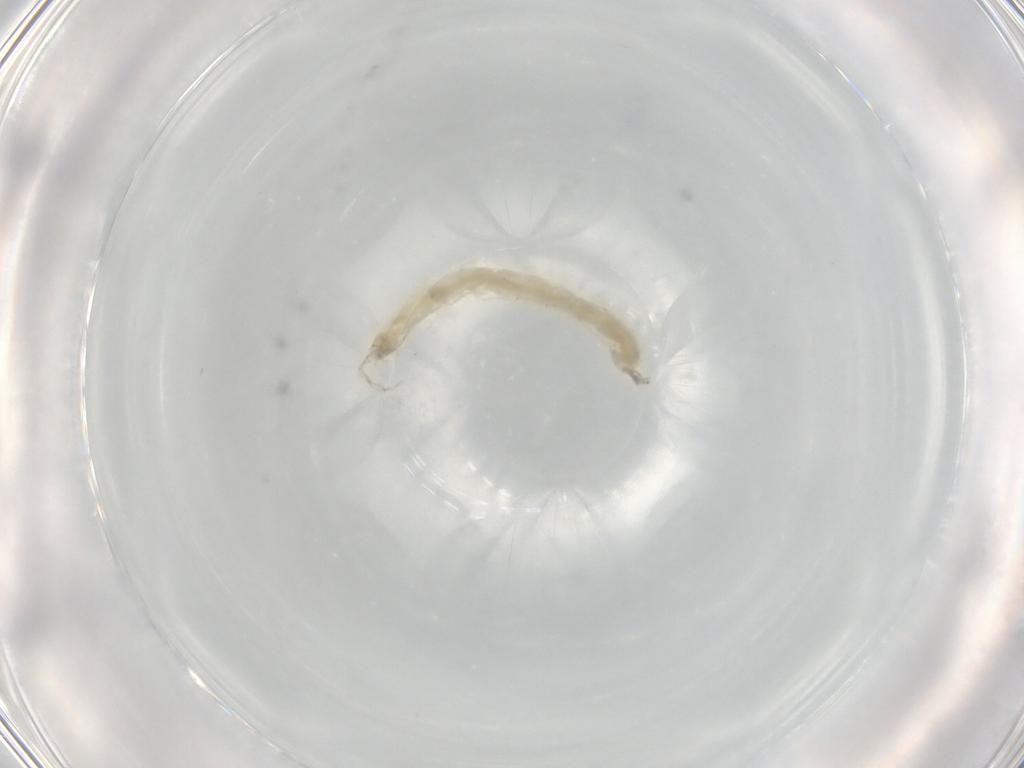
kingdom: Animalia
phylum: Arthropoda
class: Insecta
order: Diptera
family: Chironomidae
